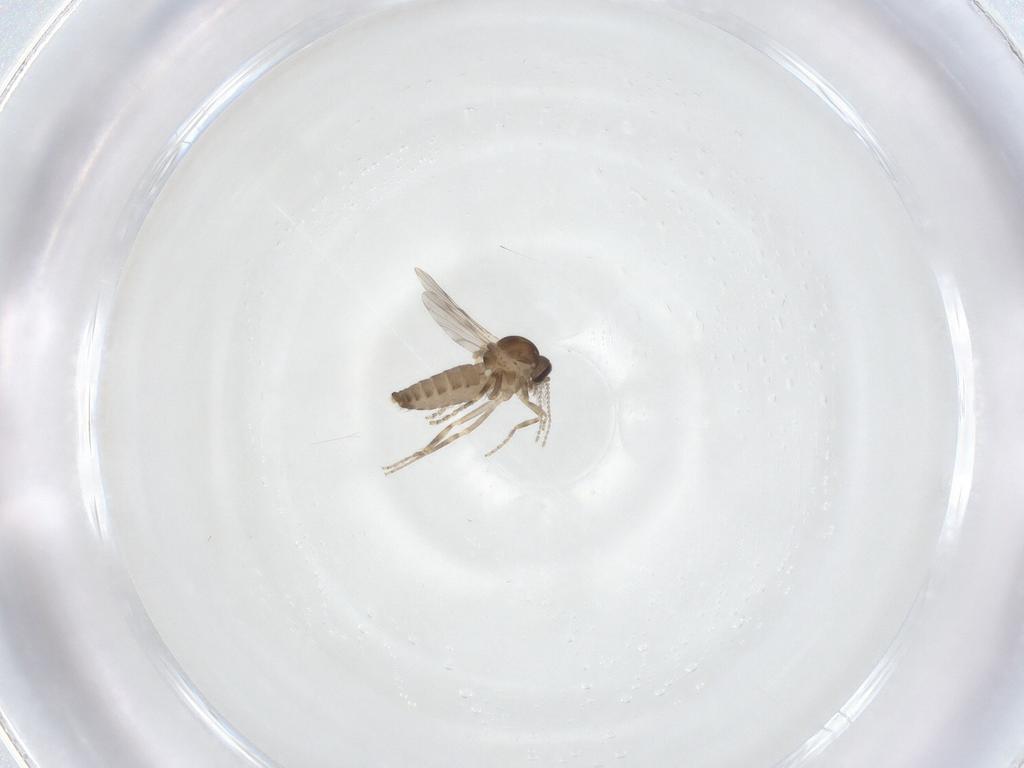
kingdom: Animalia
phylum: Arthropoda
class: Insecta
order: Diptera
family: Ceratopogonidae
